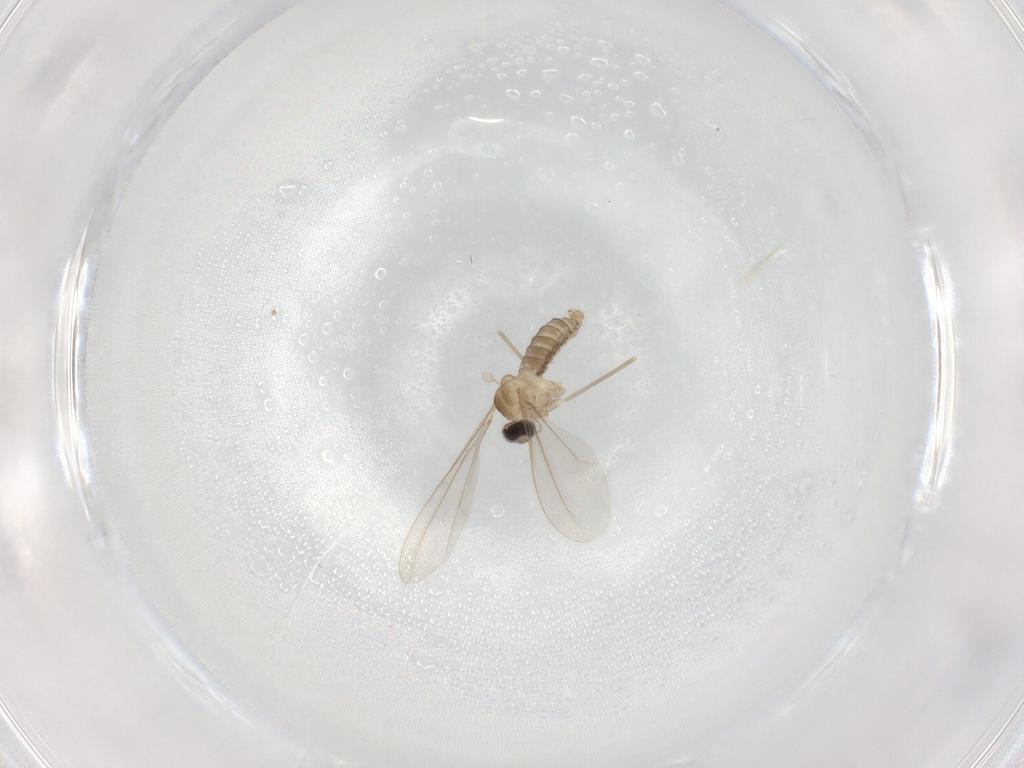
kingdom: Animalia
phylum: Arthropoda
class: Insecta
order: Diptera
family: Cecidomyiidae
